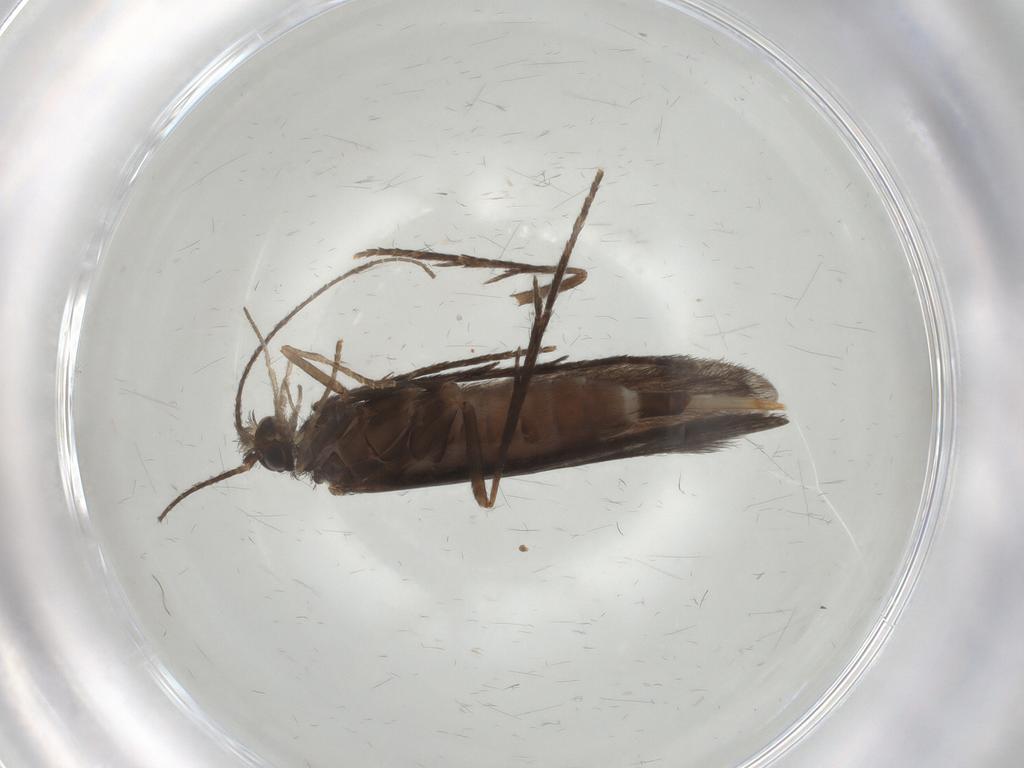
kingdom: Animalia
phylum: Arthropoda
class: Insecta
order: Trichoptera
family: Xiphocentronidae
